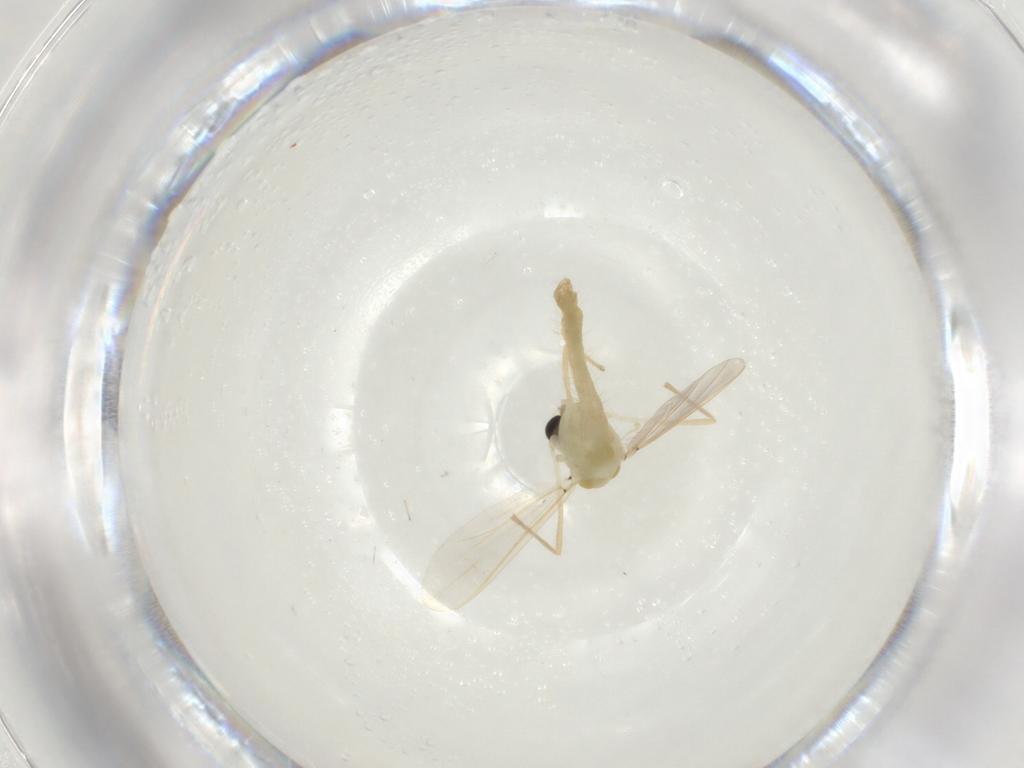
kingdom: Animalia
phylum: Arthropoda
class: Insecta
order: Diptera
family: Chironomidae
